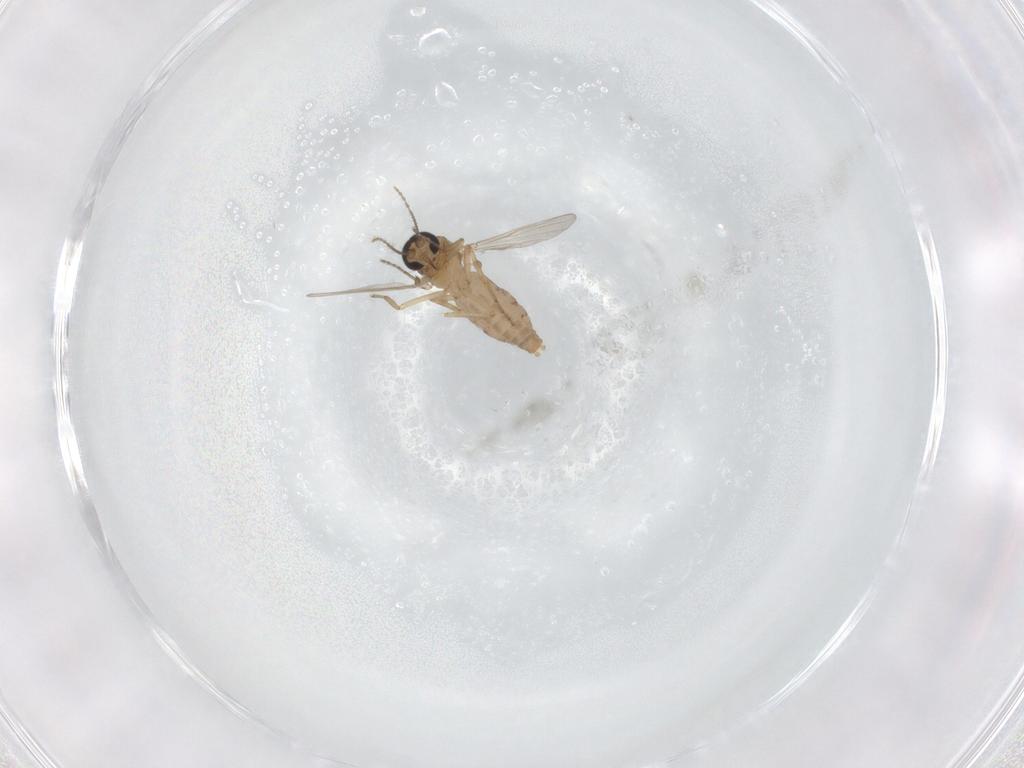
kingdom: Animalia
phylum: Arthropoda
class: Insecta
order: Diptera
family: Ceratopogonidae
